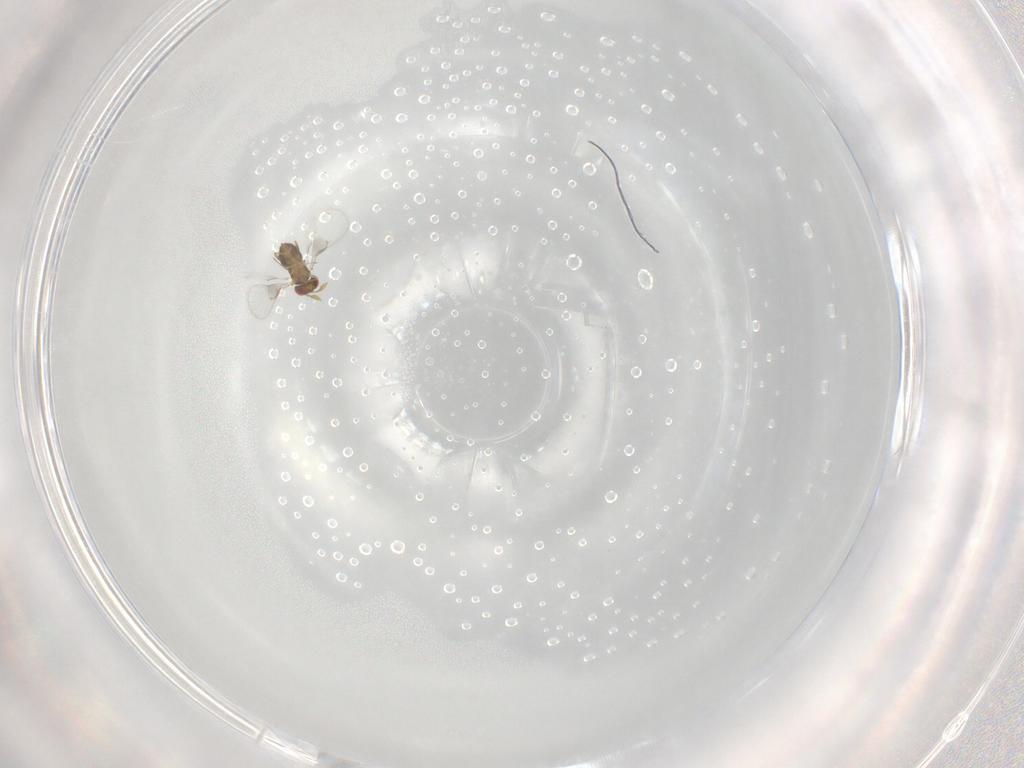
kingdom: Animalia
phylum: Arthropoda
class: Insecta
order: Hymenoptera
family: Trichogrammatidae
